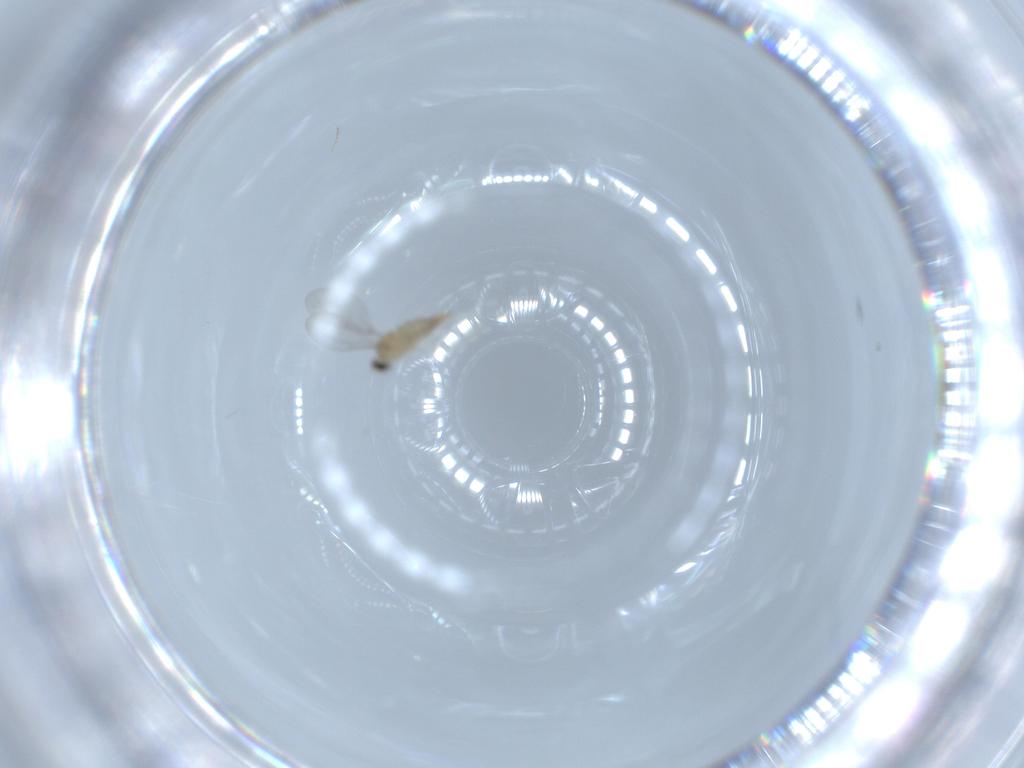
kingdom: Animalia
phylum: Arthropoda
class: Insecta
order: Diptera
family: Cecidomyiidae
